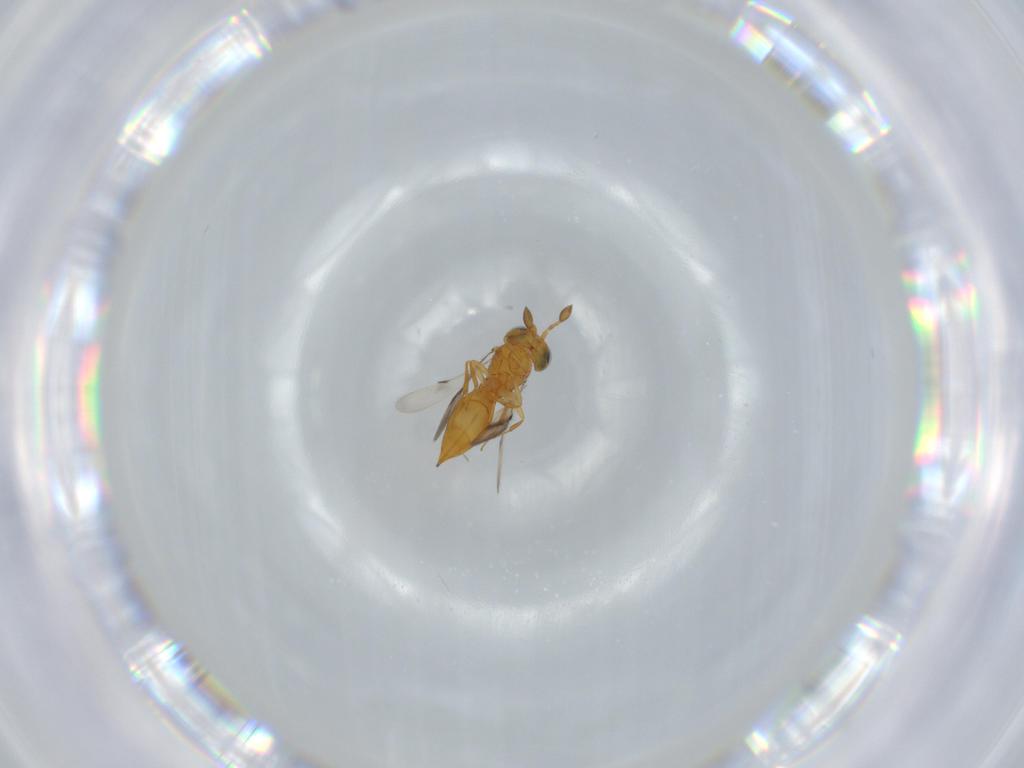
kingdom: Animalia
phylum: Arthropoda
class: Insecta
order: Hymenoptera
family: Scelionidae
